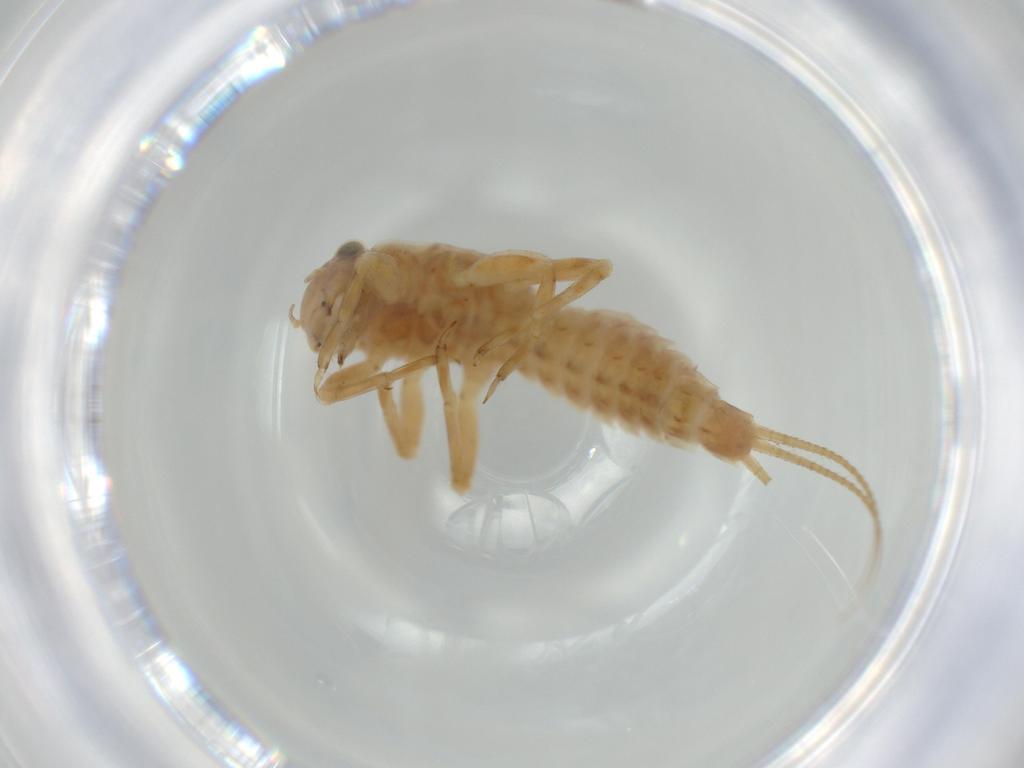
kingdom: Animalia
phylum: Arthropoda
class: Insecta
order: Ephemeroptera
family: Ephemerellidae
